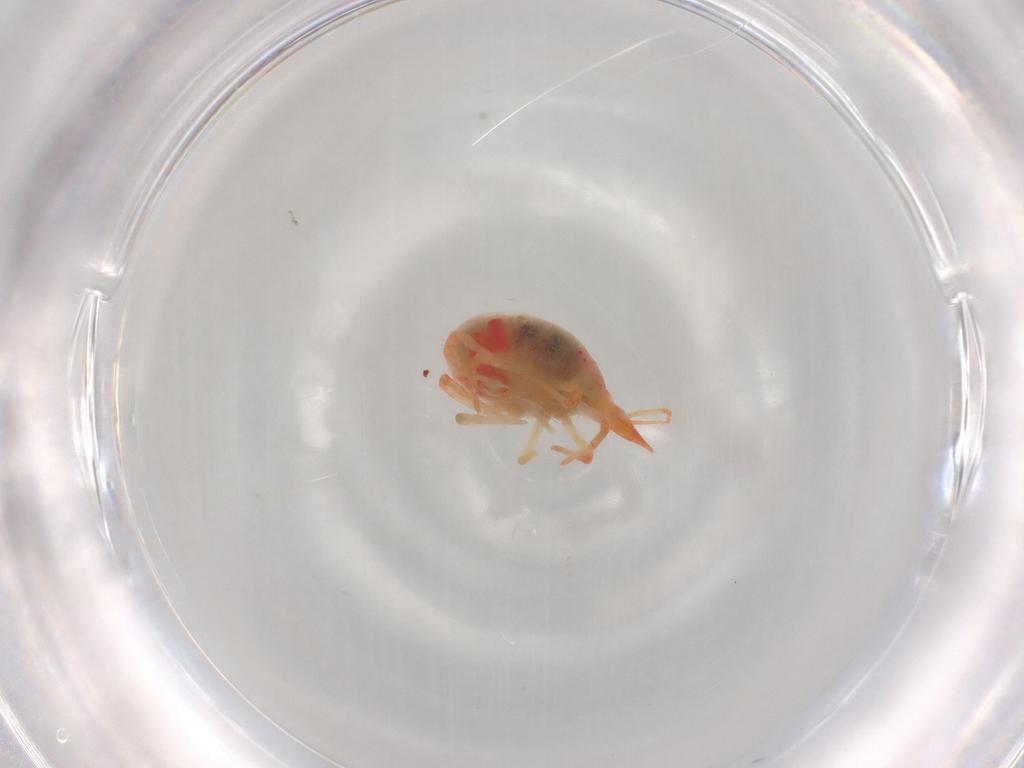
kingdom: Animalia
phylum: Arthropoda
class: Arachnida
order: Trombidiformes
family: Bdellidae
